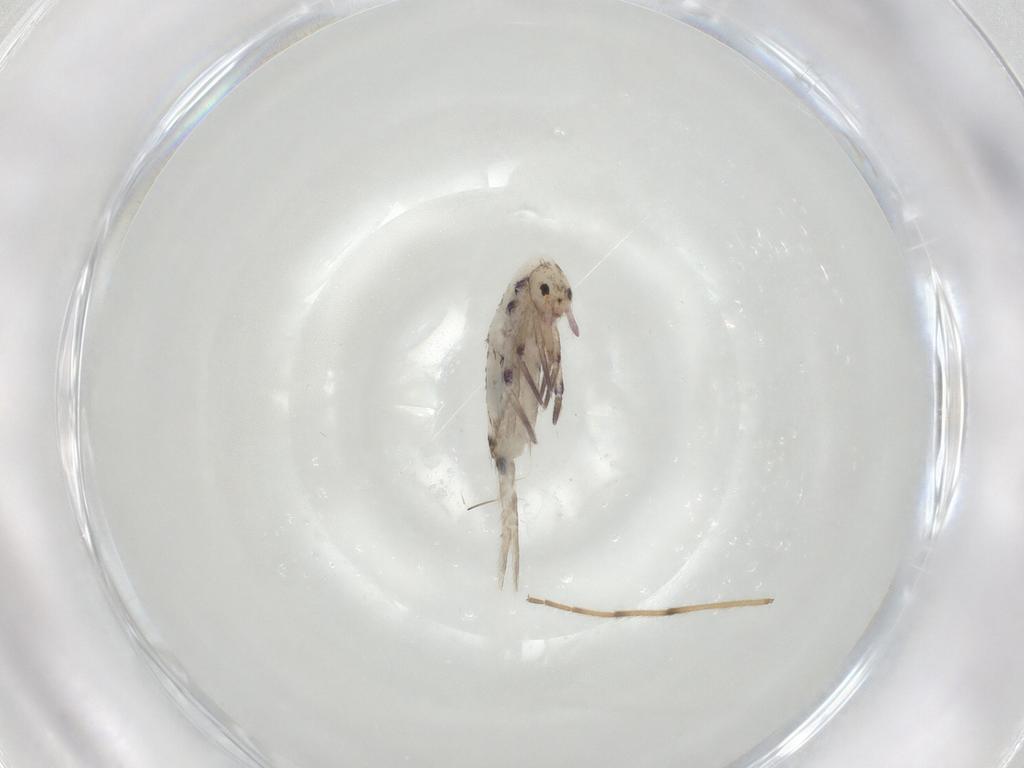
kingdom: Animalia
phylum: Arthropoda
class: Collembola
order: Entomobryomorpha
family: Entomobryidae
